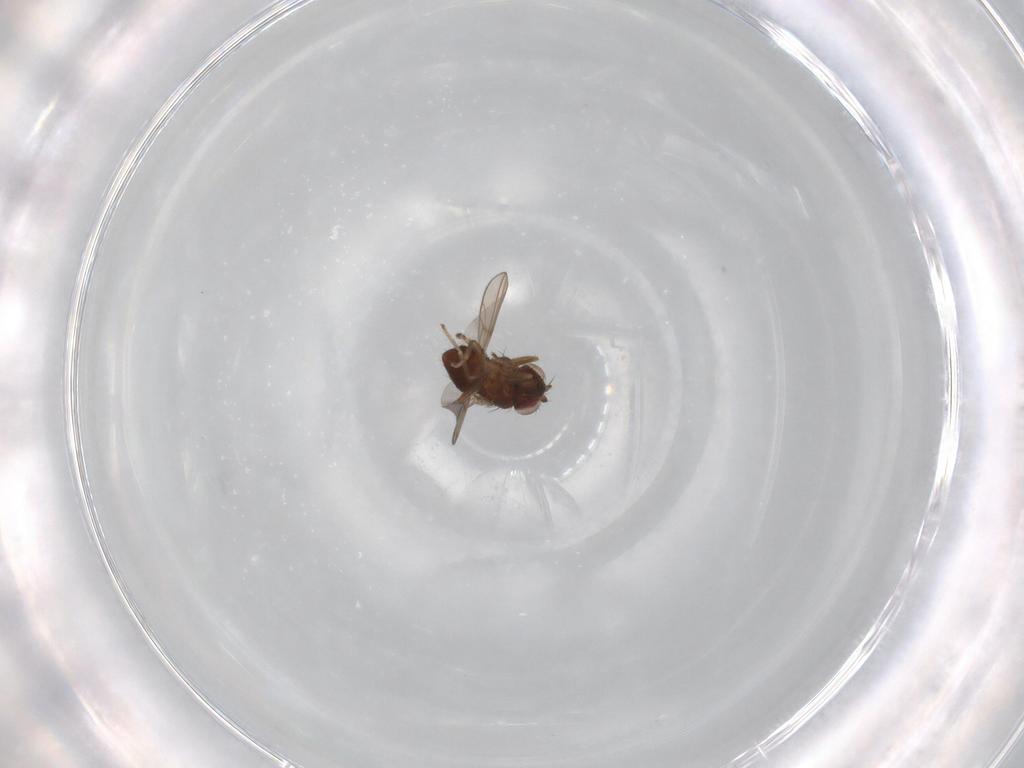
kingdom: Animalia
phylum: Arthropoda
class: Insecta
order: Diptera
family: Ephydridae
